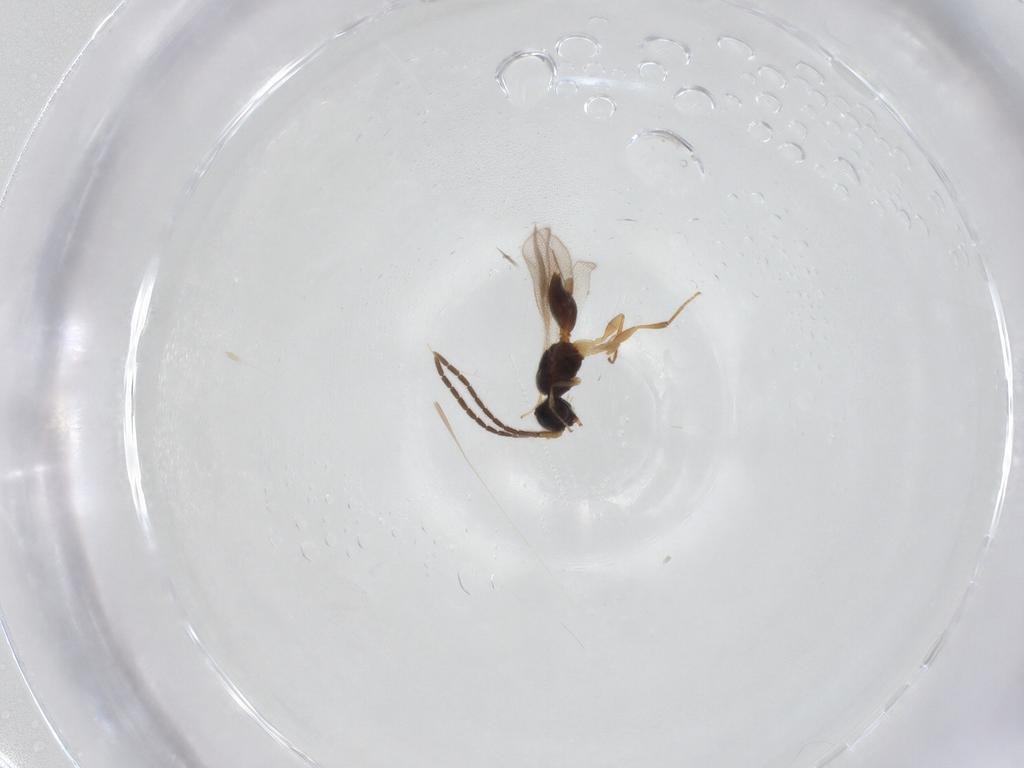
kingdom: Animalia
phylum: Arthropoda
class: Insecta
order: Hymenoptera
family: Megaspilidae
